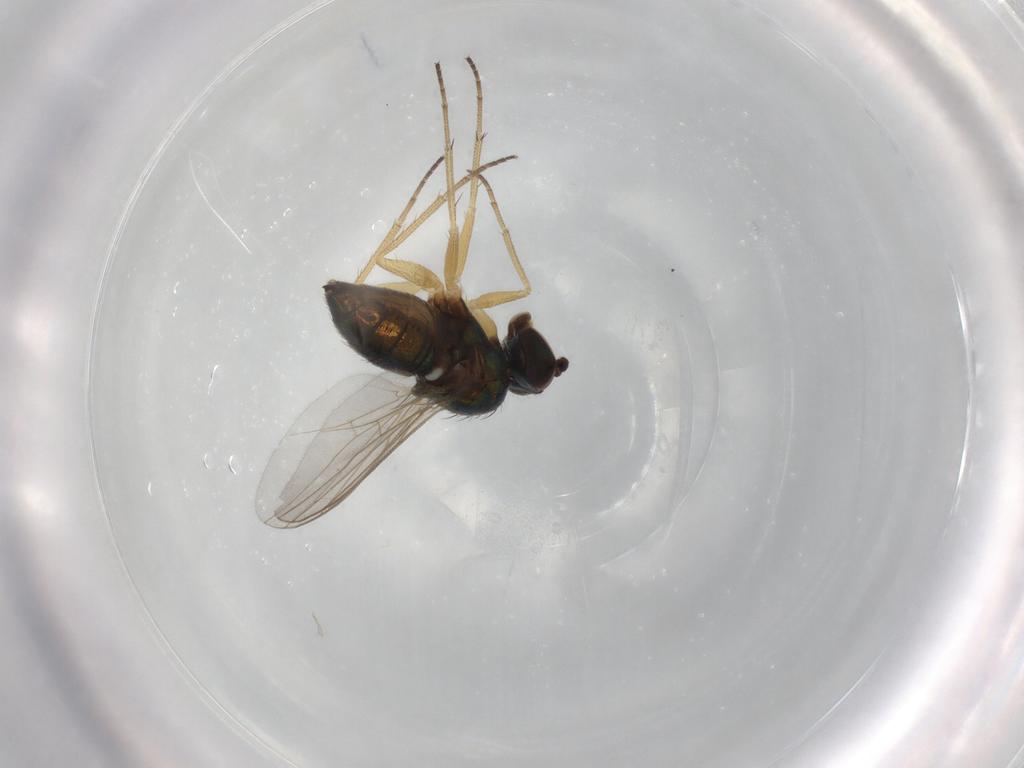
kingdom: Animalia
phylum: Arthropoda
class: Insecta
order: Diptera
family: Dolichopodidae
